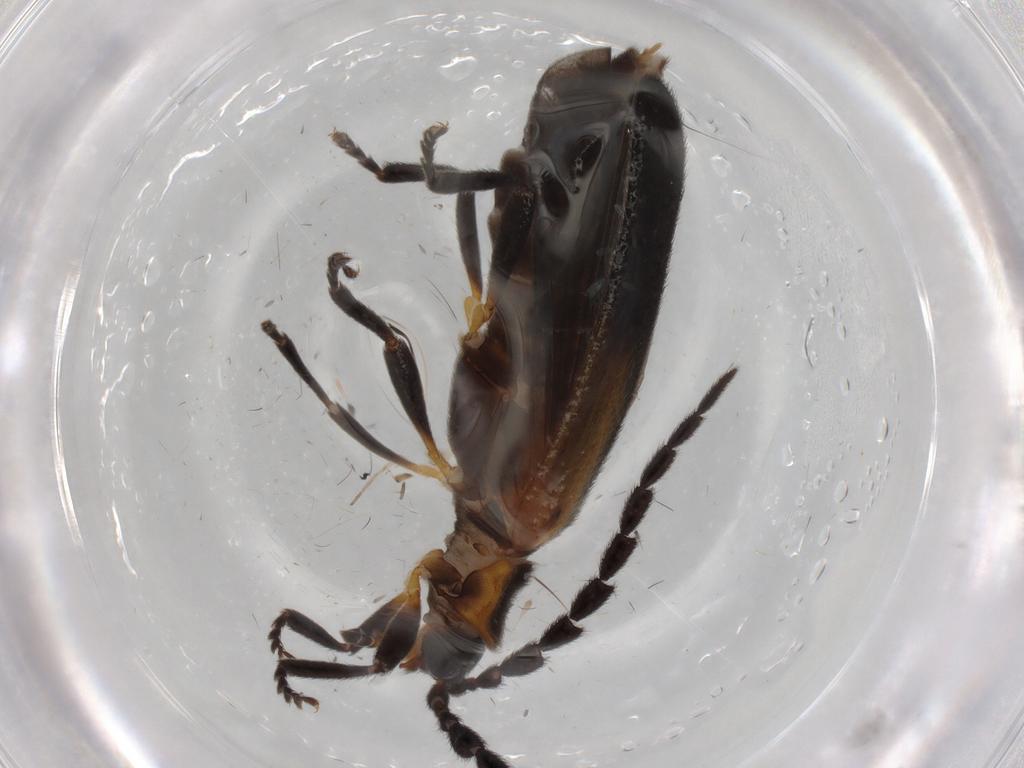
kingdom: Animalia
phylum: Arthropoda
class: Insecta
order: Coleoptera
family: Lycidae
